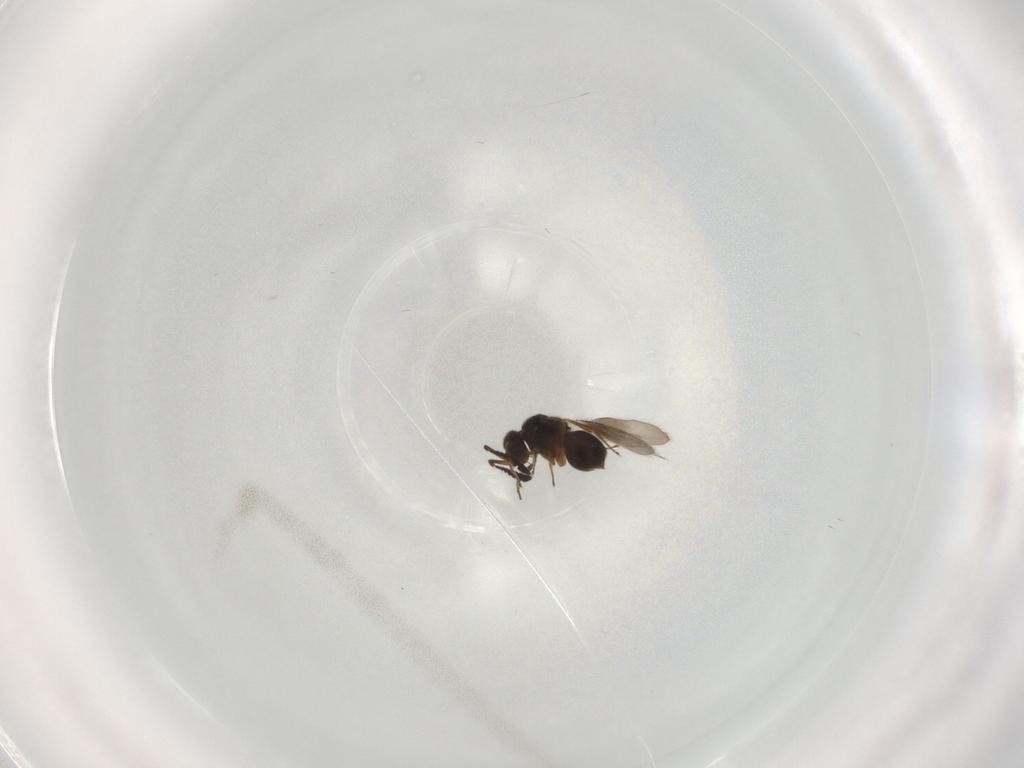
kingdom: Animalia
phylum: Arthropoda
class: Insecta
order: Hymenoptera
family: Ceraphronidae
